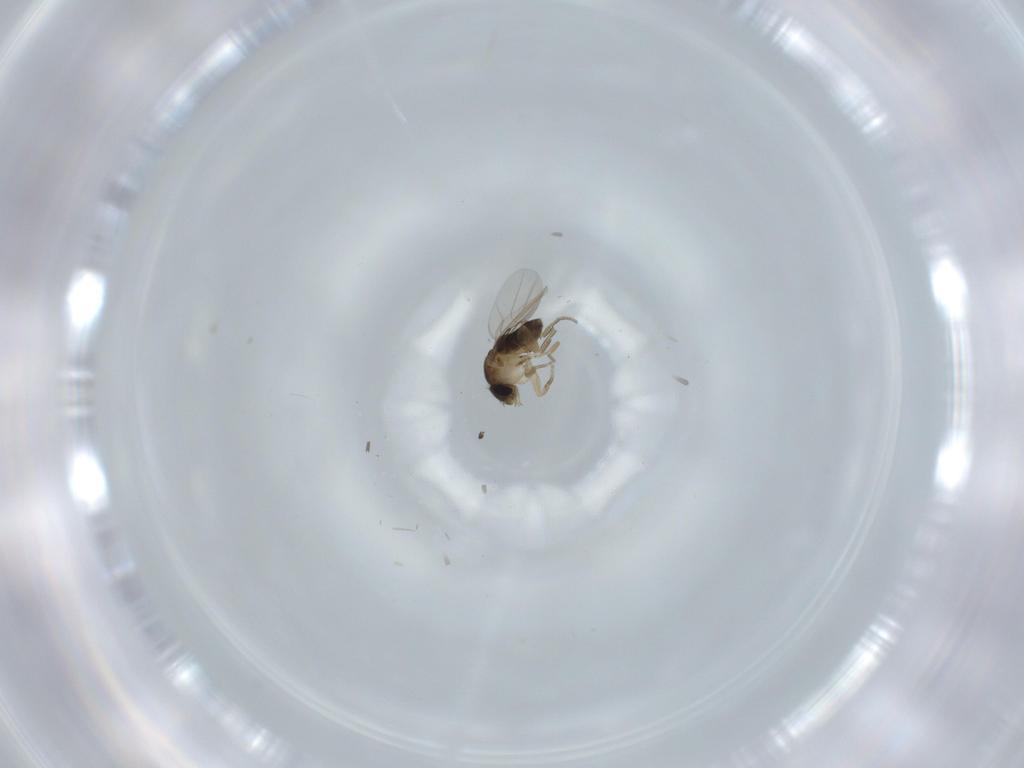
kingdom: Animalia
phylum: Arthropoda
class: Insecta
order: Diptera
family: Phoridae
